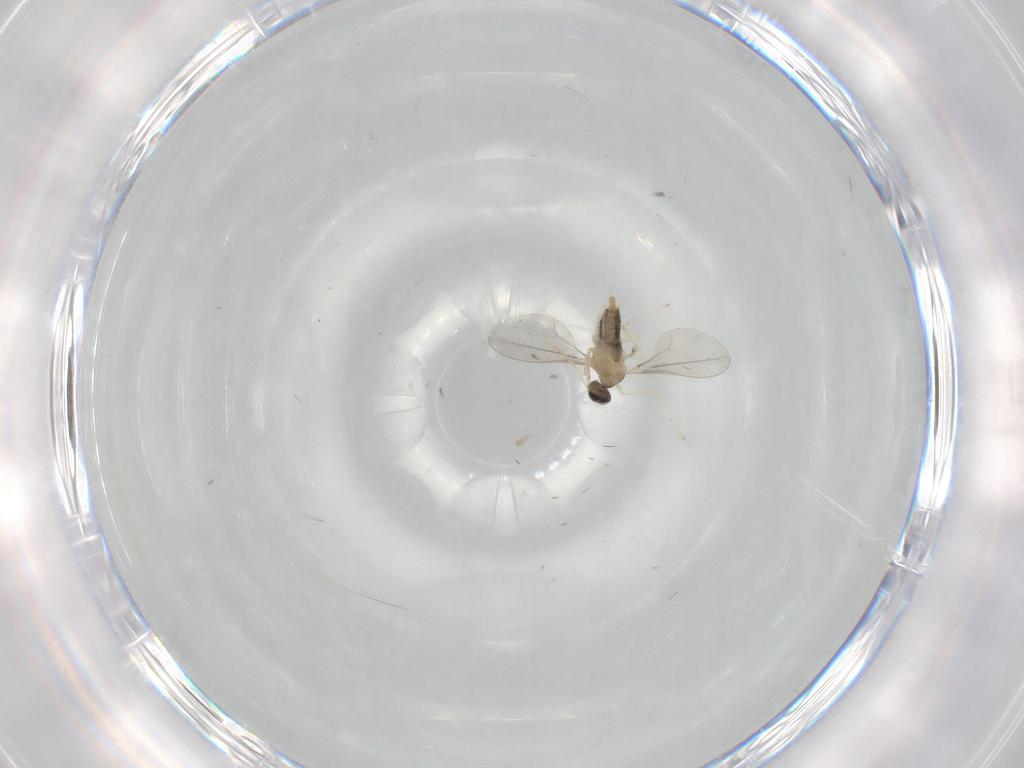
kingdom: Animalia
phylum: Arthropoda
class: Insecta
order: Diptera
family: Cecidomyiidae
